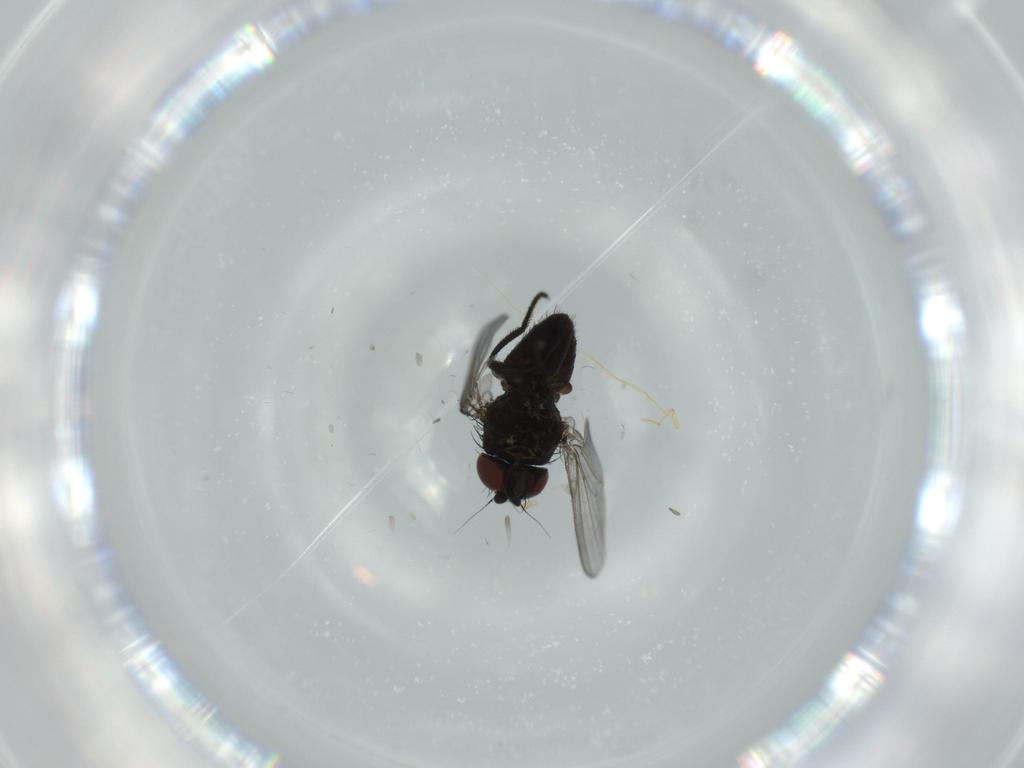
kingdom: Animalia
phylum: Arthropoda
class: Insecta
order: Diptera
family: Milichiidae
